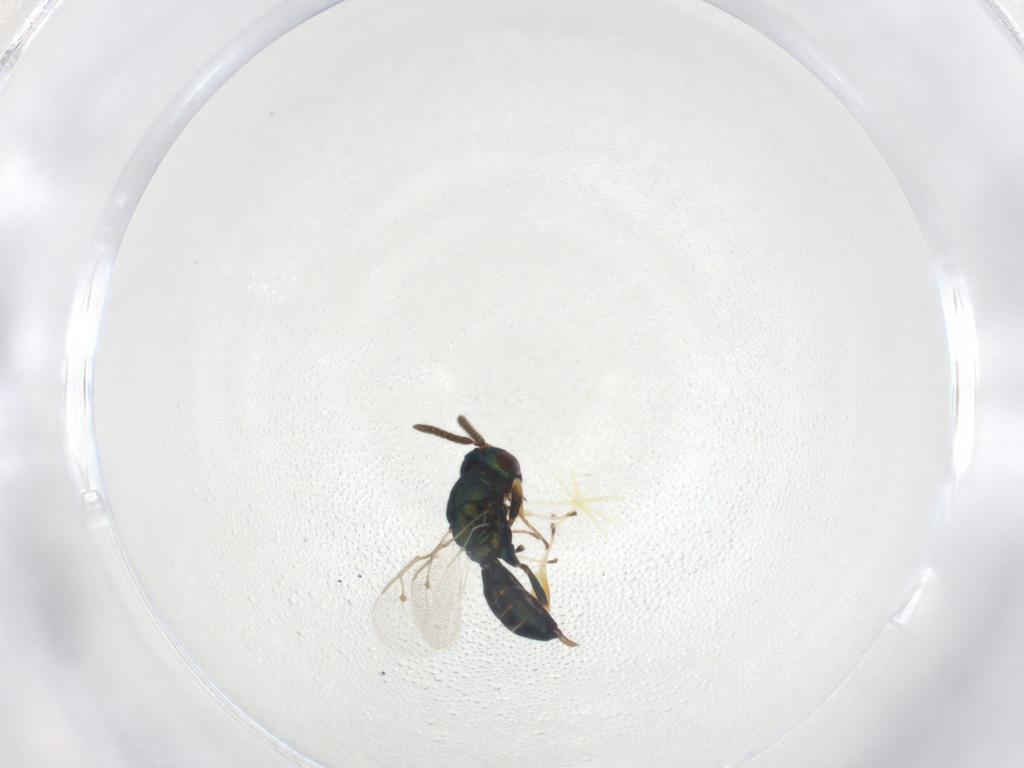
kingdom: Animalia
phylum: Arthropoda
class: Insecta
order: Hymenoptera
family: Pteromalidae
